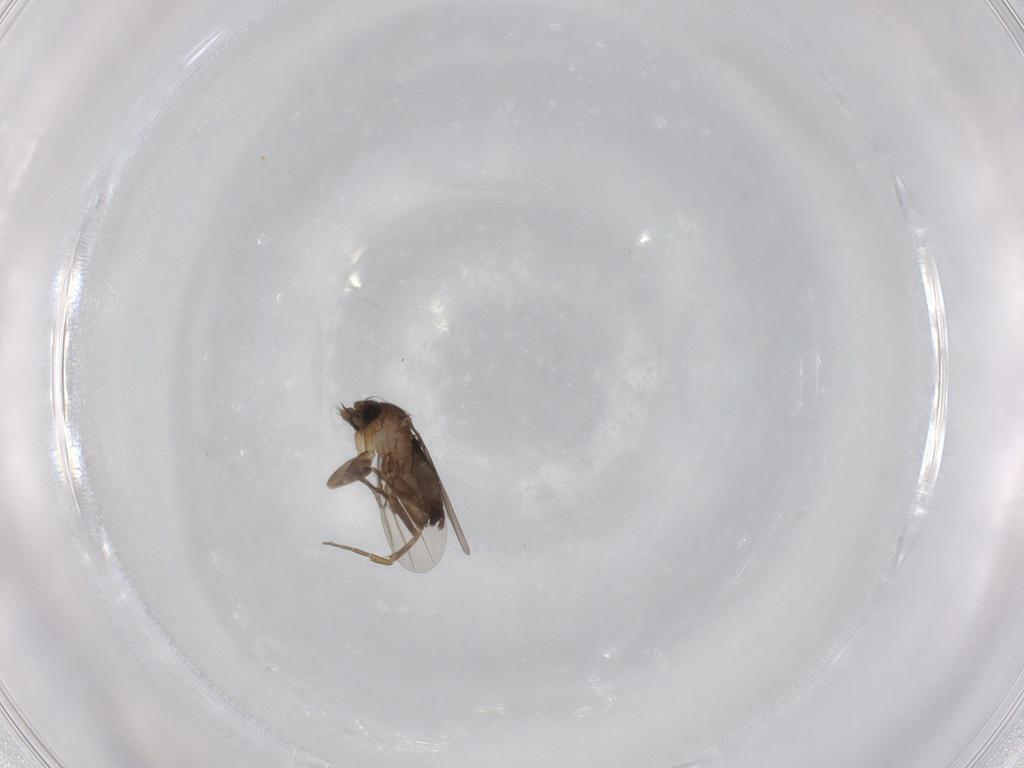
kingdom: Animalia
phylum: Arthropoda
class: Insecta
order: Diptera
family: Phoridae
